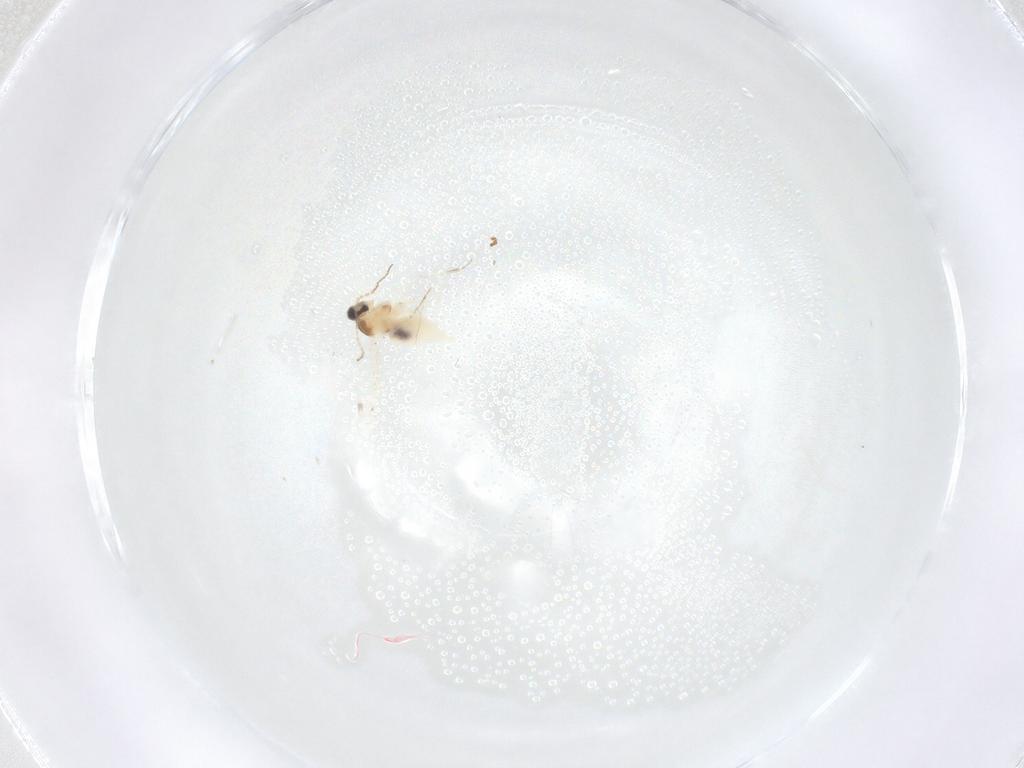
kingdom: Animalia
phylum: Arthropoda
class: Insecta
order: Diptera
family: Cecidomyiidae
